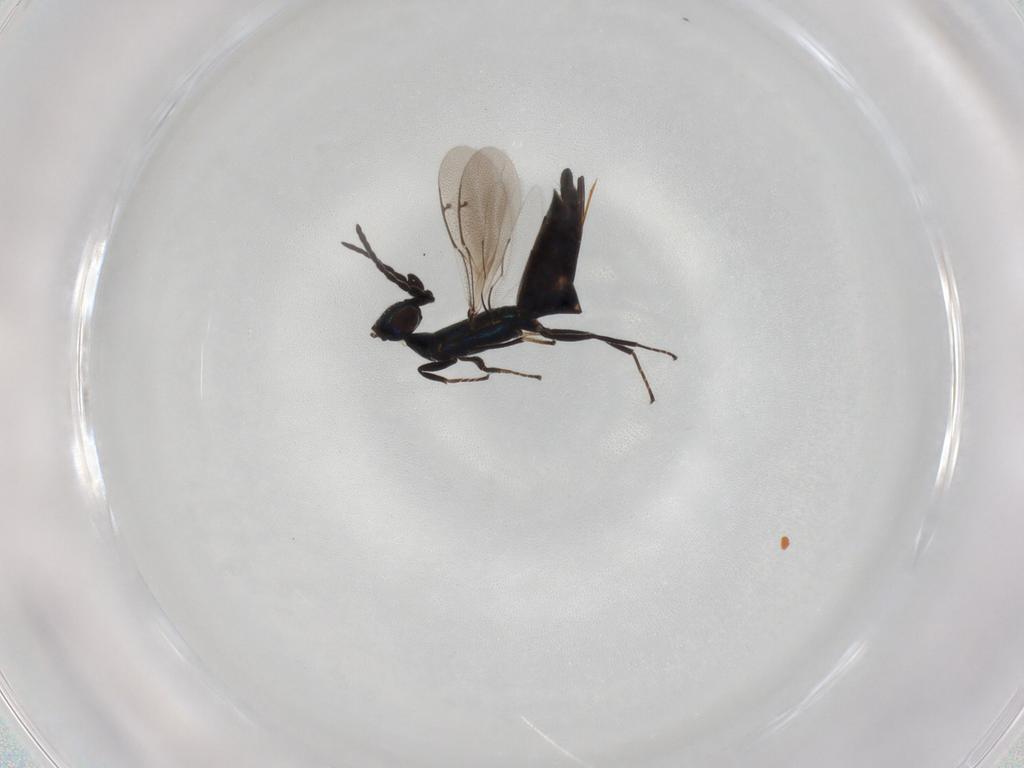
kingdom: Animalia
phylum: Arthropoda
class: Insecta
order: Hymenoptera
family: Eupelmidae
